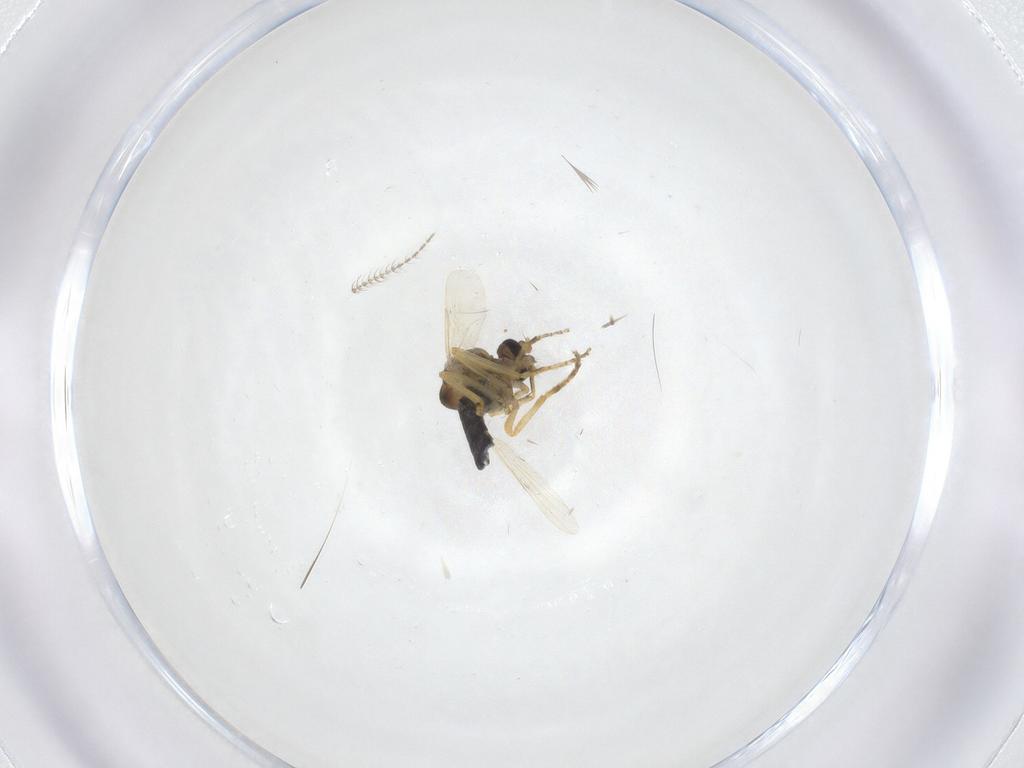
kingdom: Animalia
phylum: Arthropoda
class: Insecta
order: Diptera
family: Ceratopogonidae
